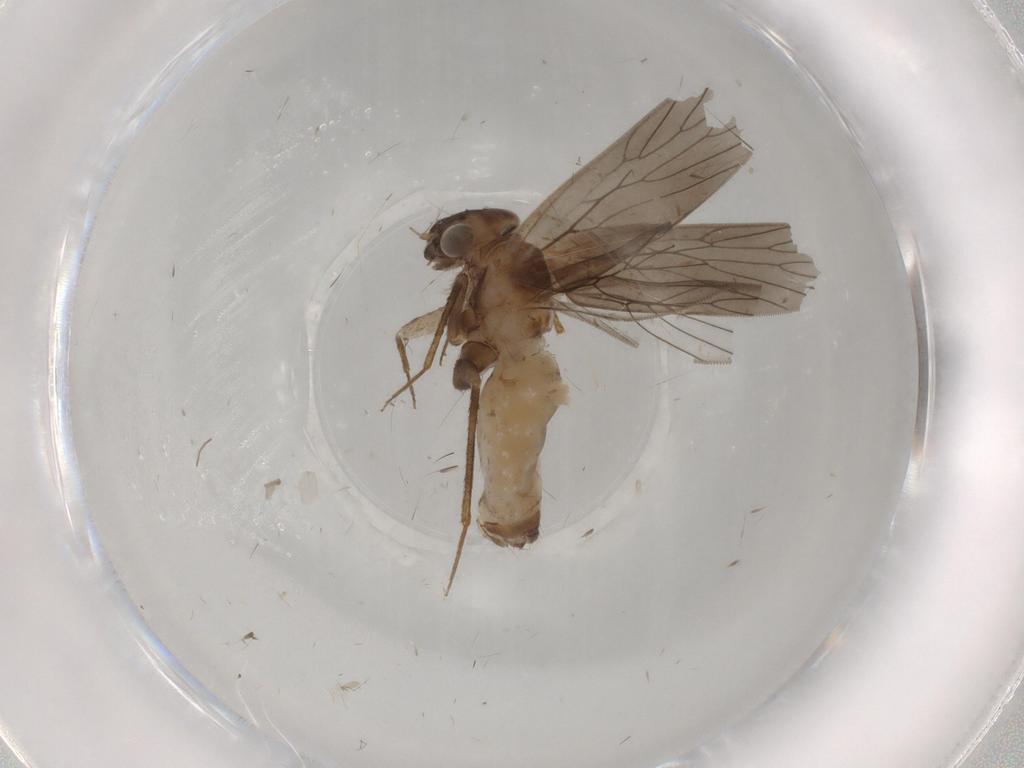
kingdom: Animalia
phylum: Arthropoda
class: Insecta
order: Psocodea
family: Lepidopsocidae
